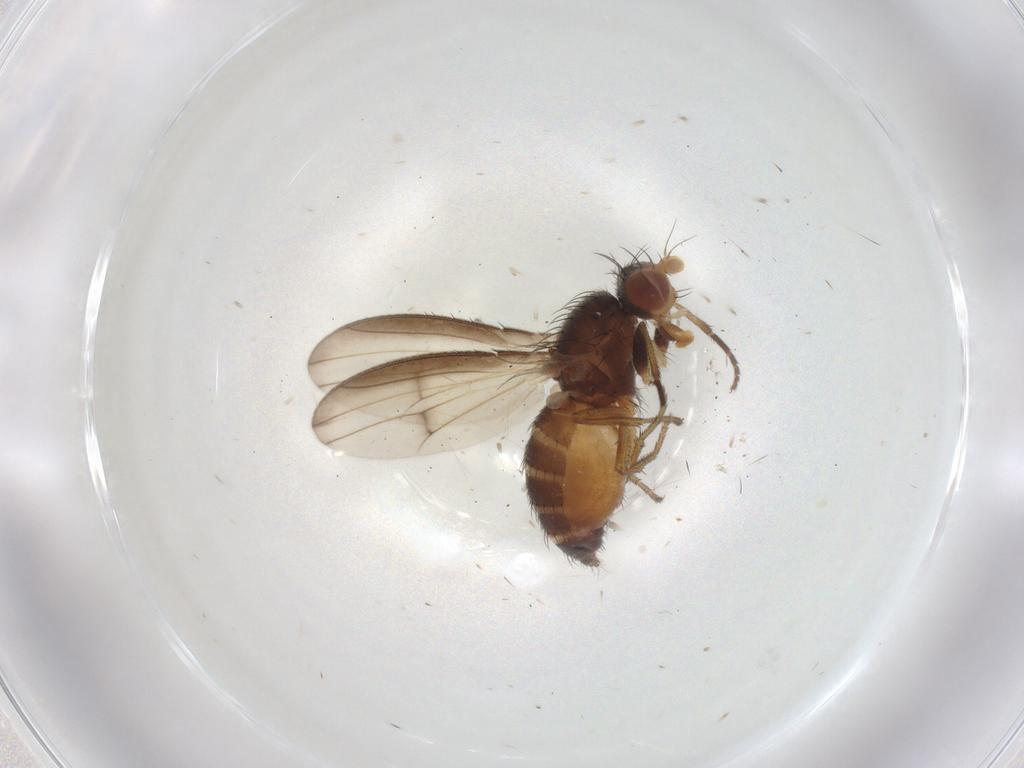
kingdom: Animalia
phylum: Arthropoda
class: Insecta
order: Diptera
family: Heleomyzidae
